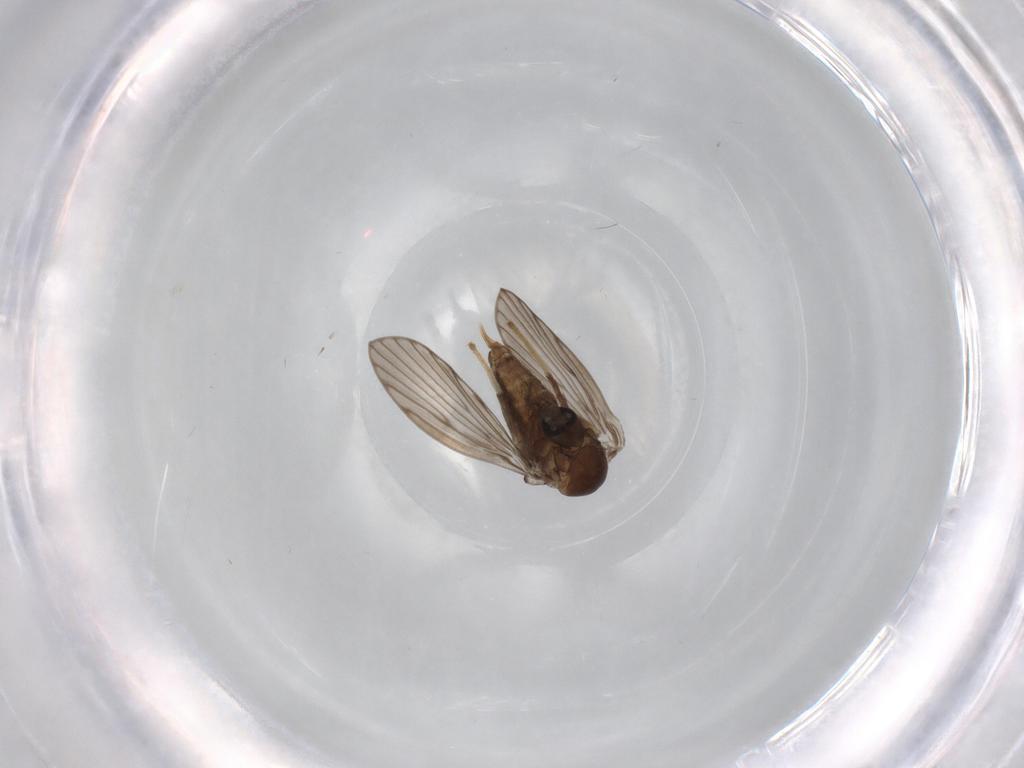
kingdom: Animalia
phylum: Arthropoda
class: Insecta
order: Diptera
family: Psychodidae
